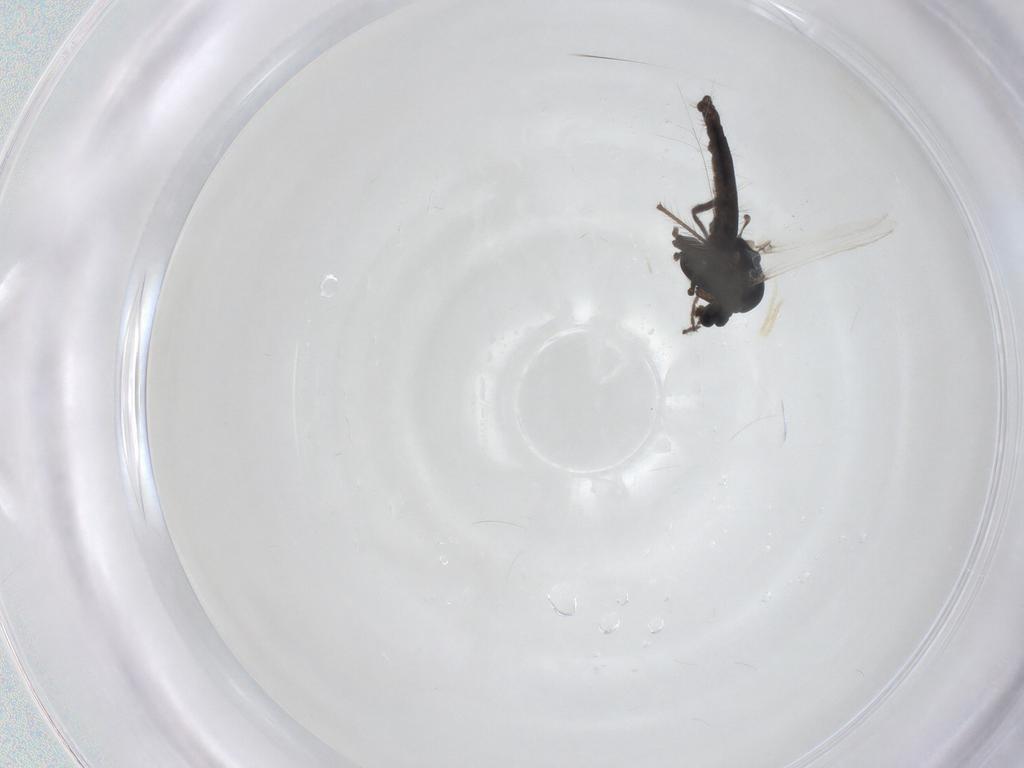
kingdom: Animalia
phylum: Arthropoda
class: Insecta
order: Diptera
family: Chironomidae
